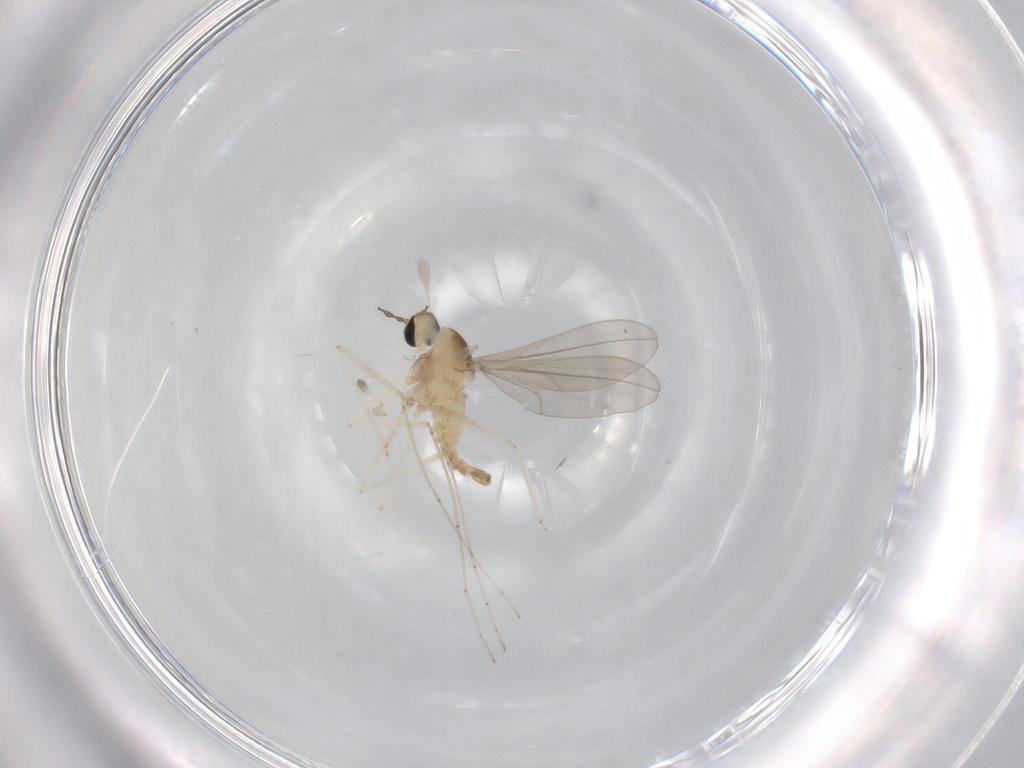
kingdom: Animalia
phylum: Arthropoda
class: Insecta
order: Diptera
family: Cecidomyiidae
